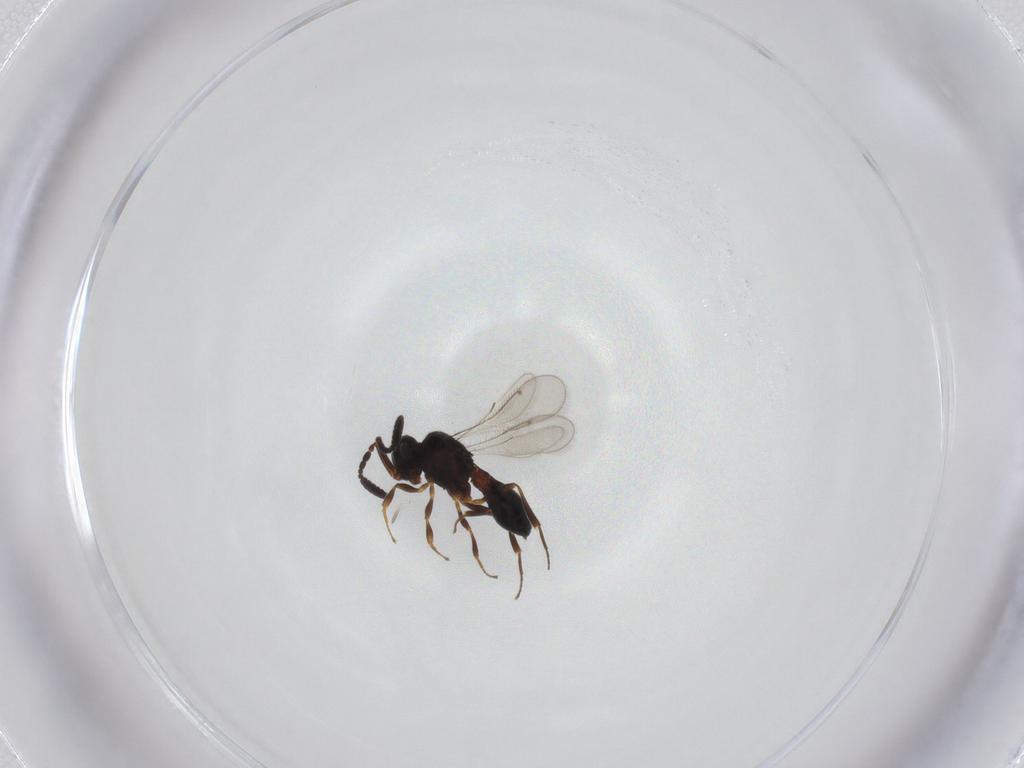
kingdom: Animalia
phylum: Arthropoda
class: Insecta
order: Hymenoptera
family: Scelionidae
